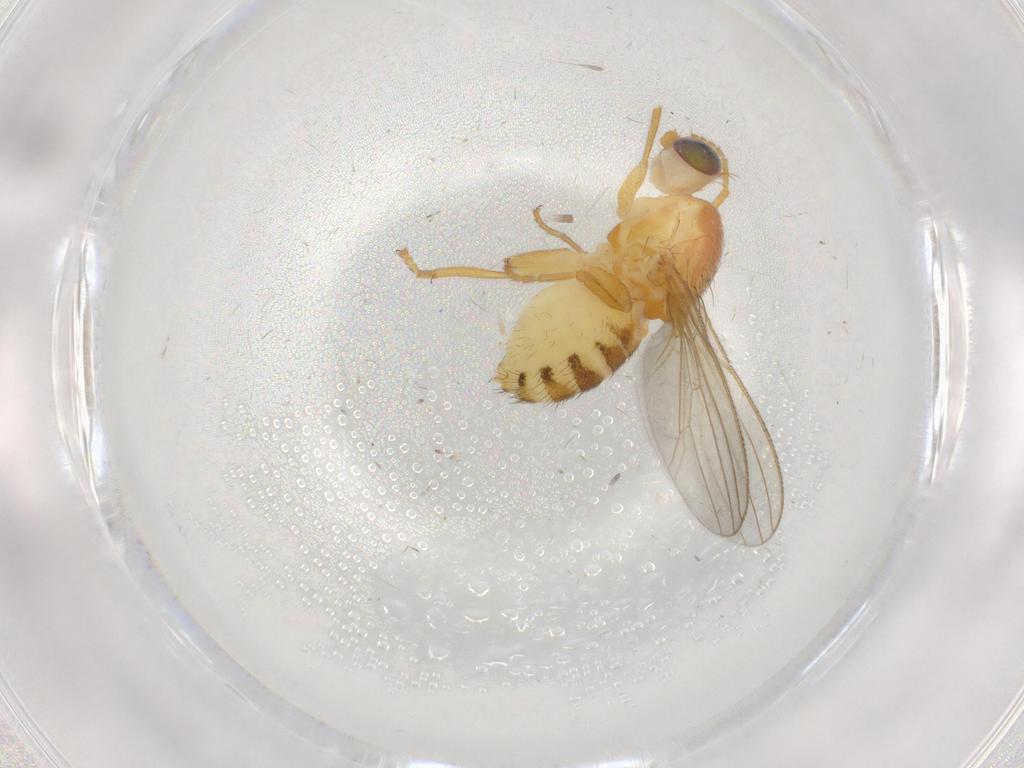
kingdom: Animalia
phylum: Arthropoda
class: Insecta
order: Diptera
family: Chyromyidae
